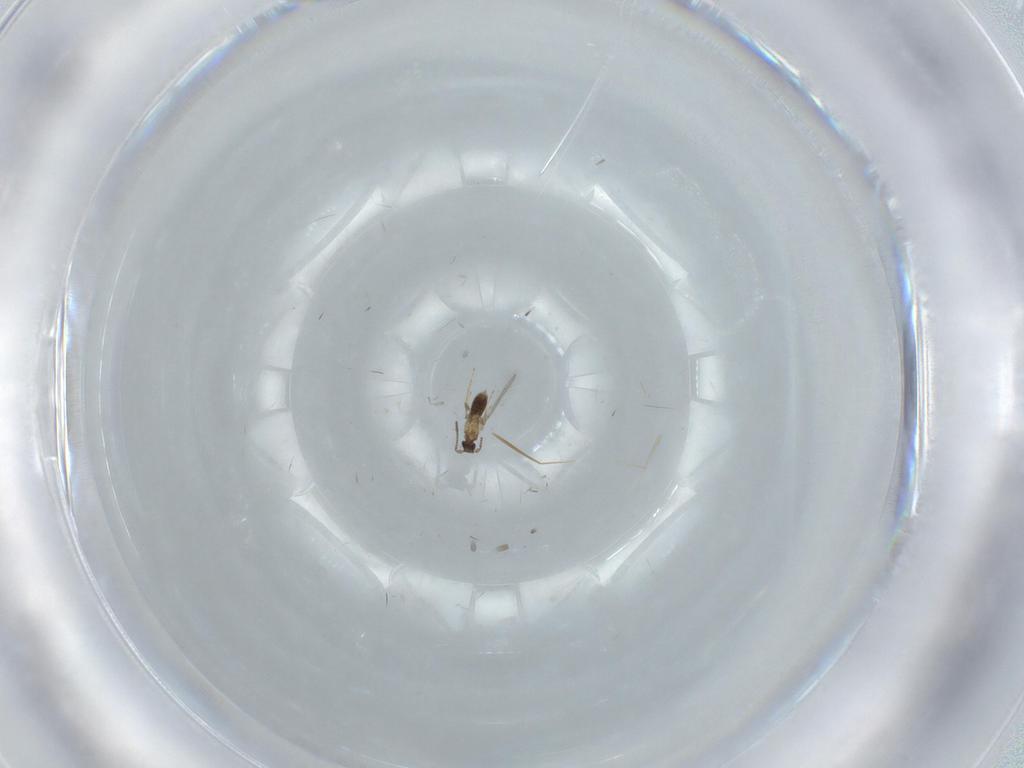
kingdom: Animalia
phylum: Arthropoda
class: Insecta
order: Hymenoptera
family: Mymaridae
